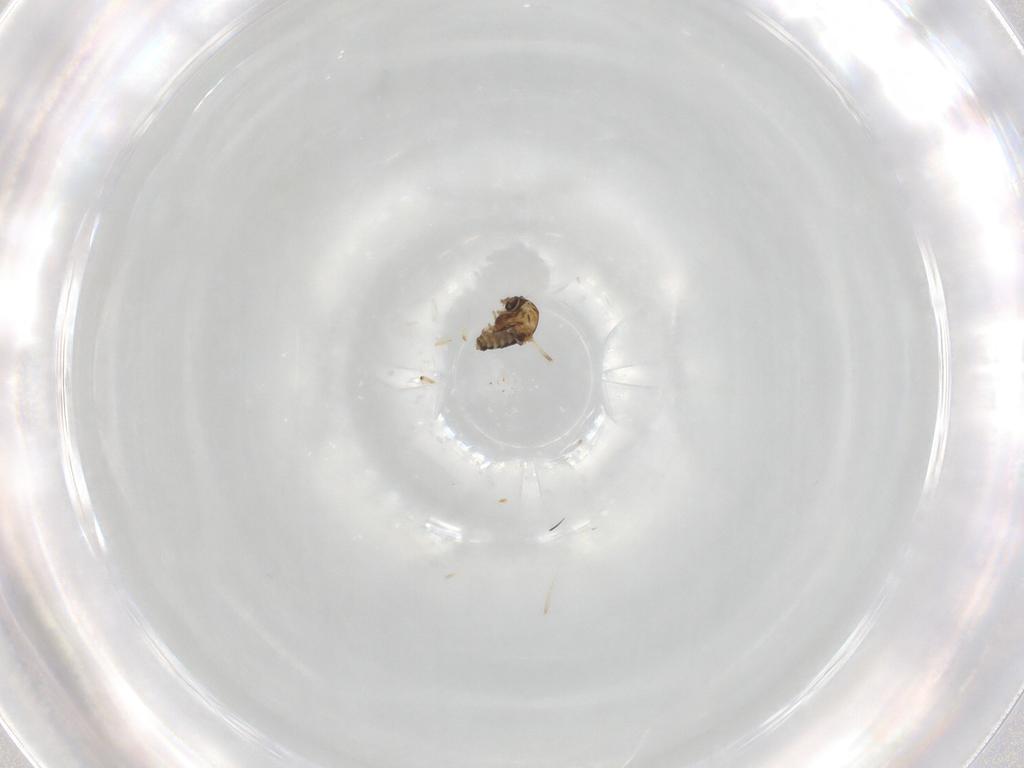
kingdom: Animalia
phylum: Arthropoda
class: Insecta
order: Diptera
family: Glossinidae
